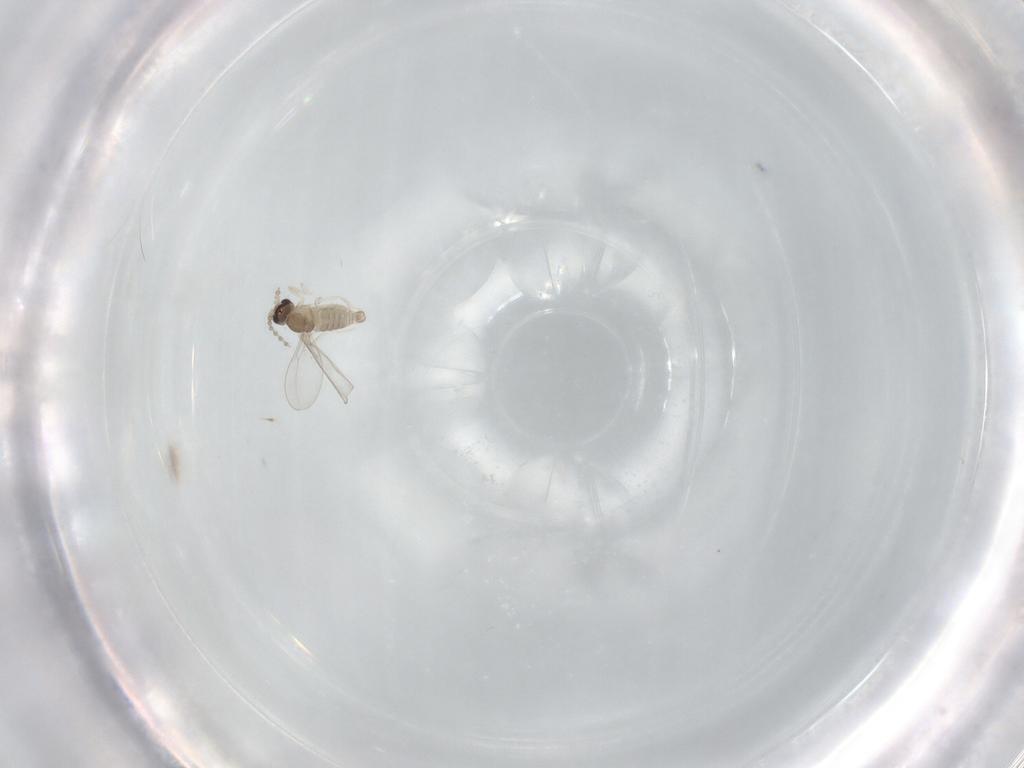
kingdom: Animalia
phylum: Arthropoda
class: Insecta
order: Diptera
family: Cecidomyiidae
